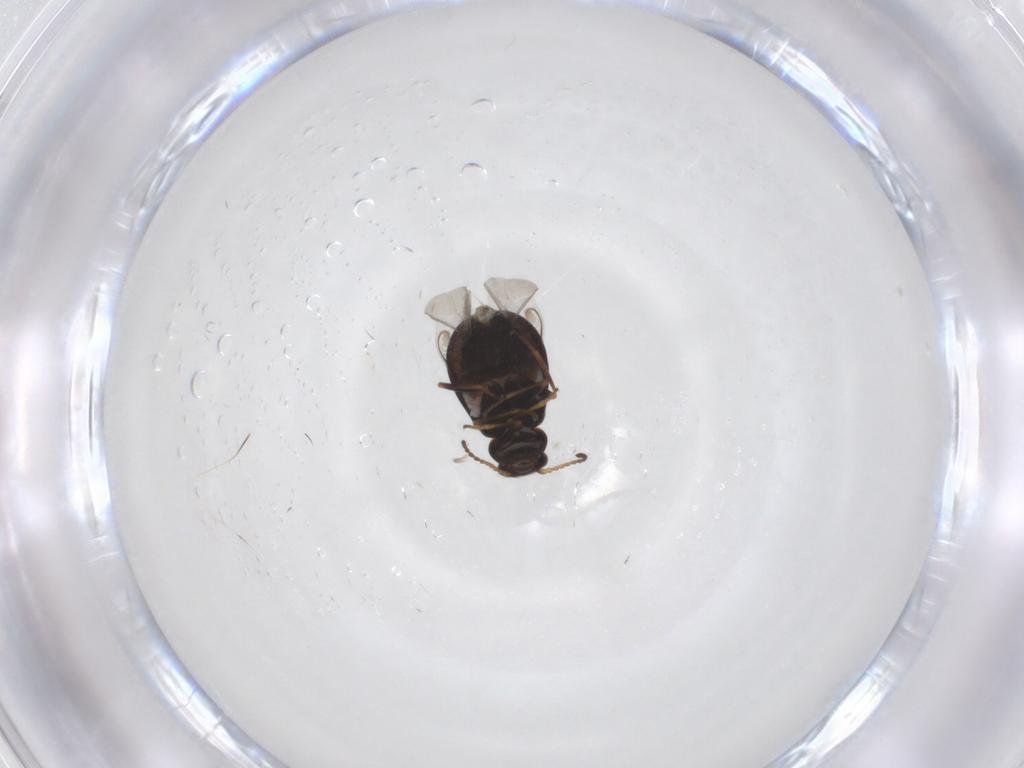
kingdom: Animalia
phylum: Arthropoda
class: Insecta
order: Coleoptera
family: Melyridae
